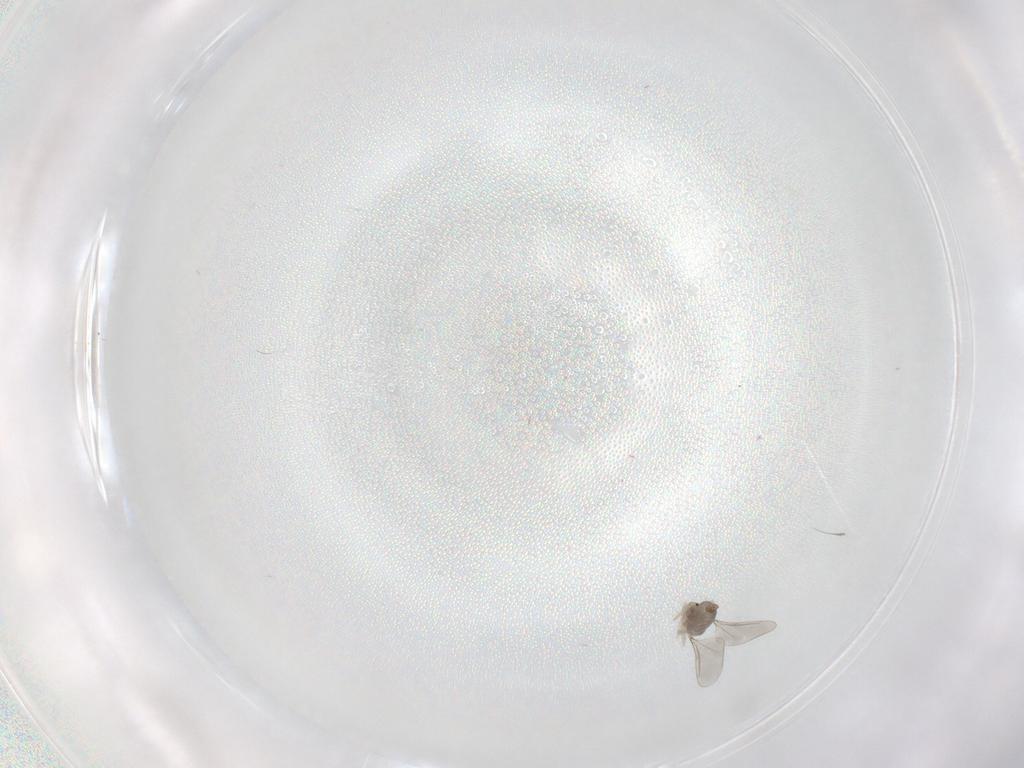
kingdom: Animalia
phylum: Arthropoda
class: Insecta
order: Diptera
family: Cecidomyiidae
